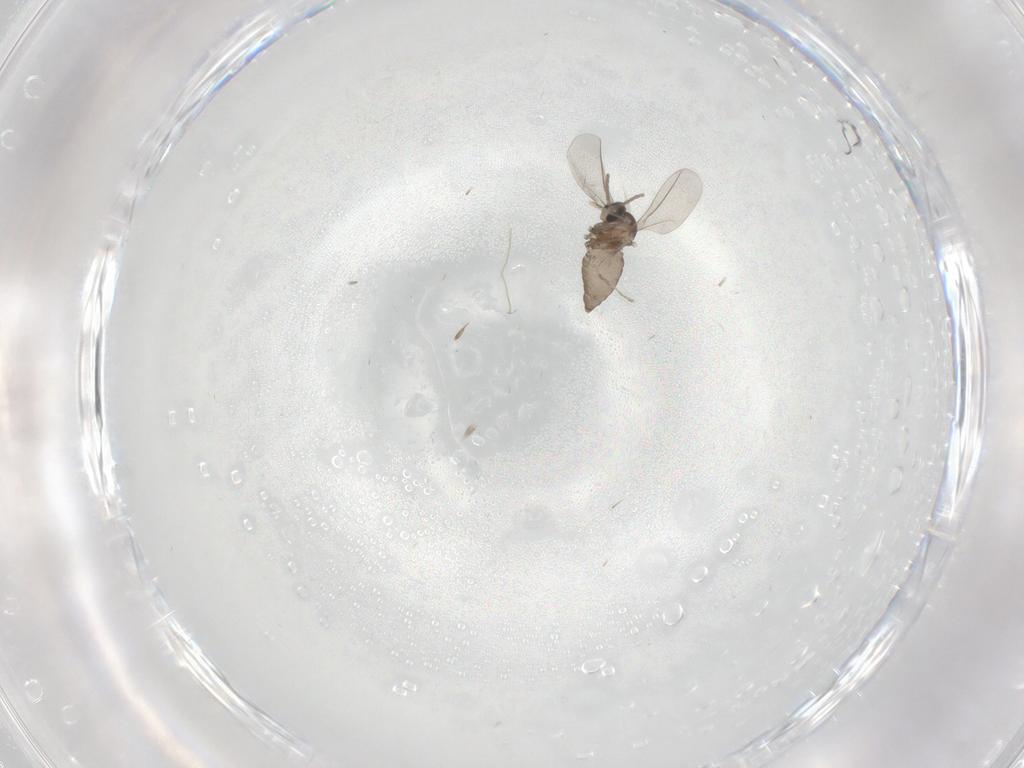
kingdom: Animalia
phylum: Arthropoda
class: Insecta
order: Diptera
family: Cecidomyiidae
